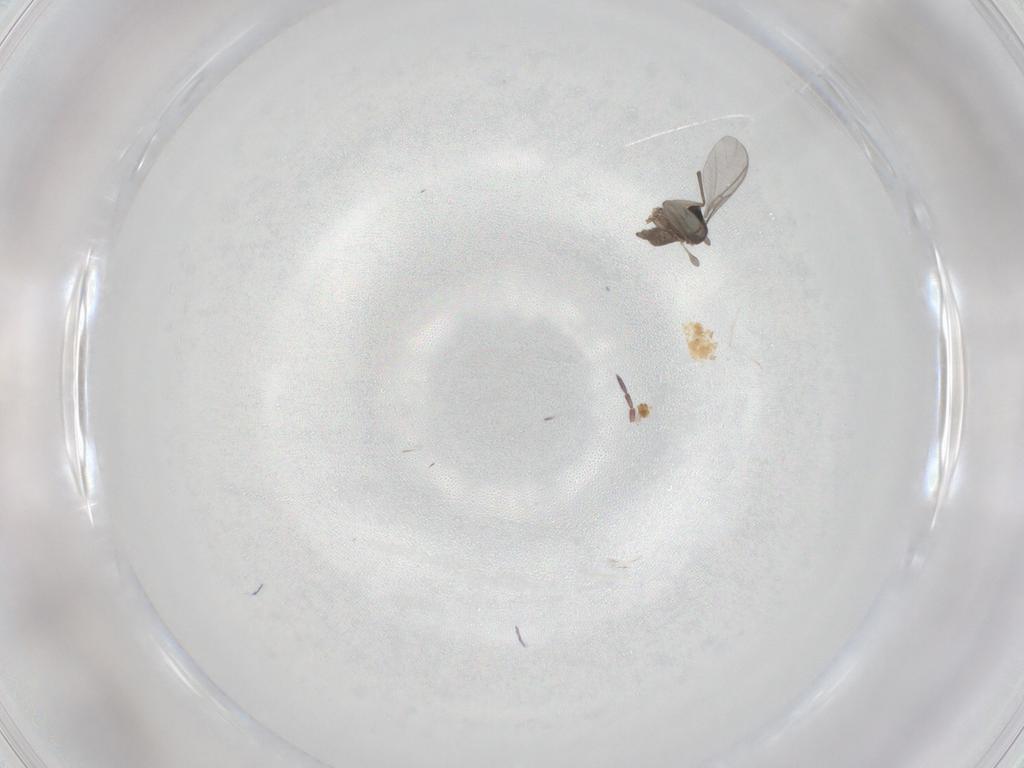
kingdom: Animalia
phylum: Arthropoda
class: Insecta
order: Diptera
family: Sciaridae
